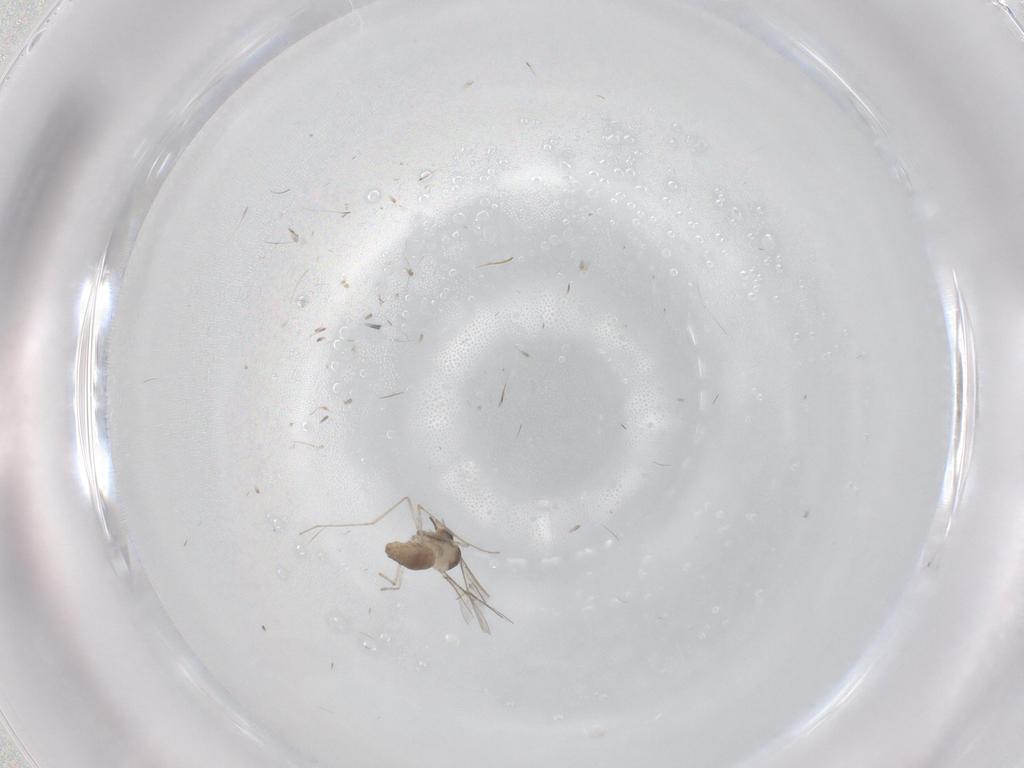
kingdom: Animalia
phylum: Arthropoda
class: Insecta
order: Diptera
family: Cecidomyiidae
